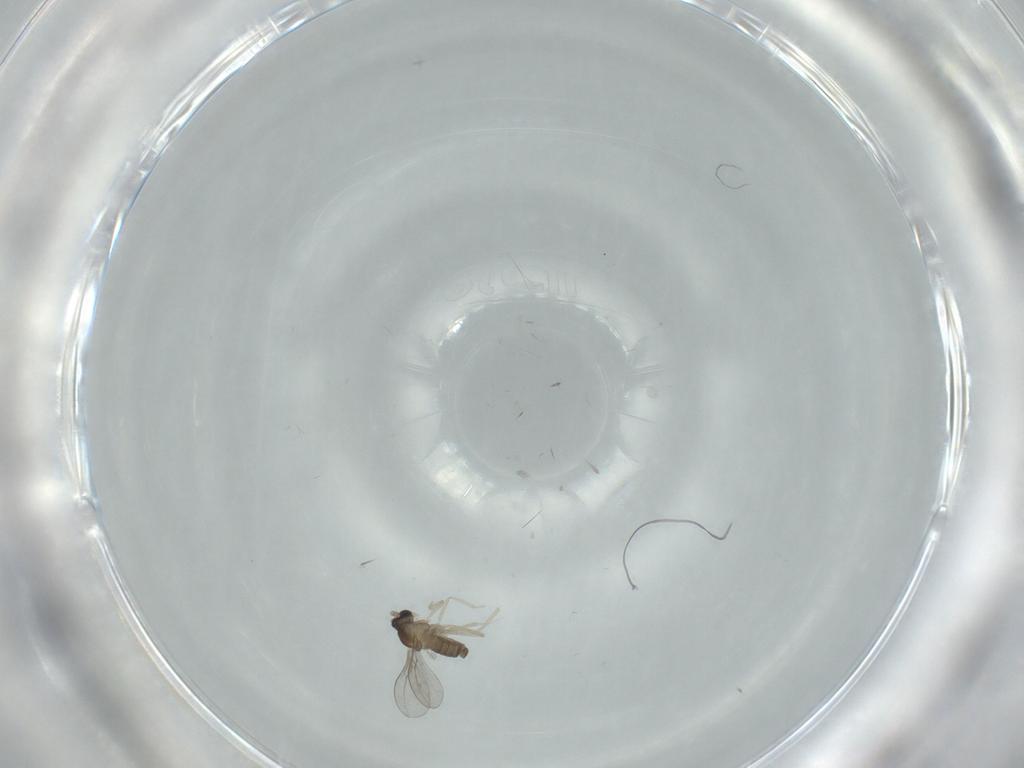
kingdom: Animalia
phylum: Arthropoda
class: Insecta
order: Diptera
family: Cecidomyiidae
